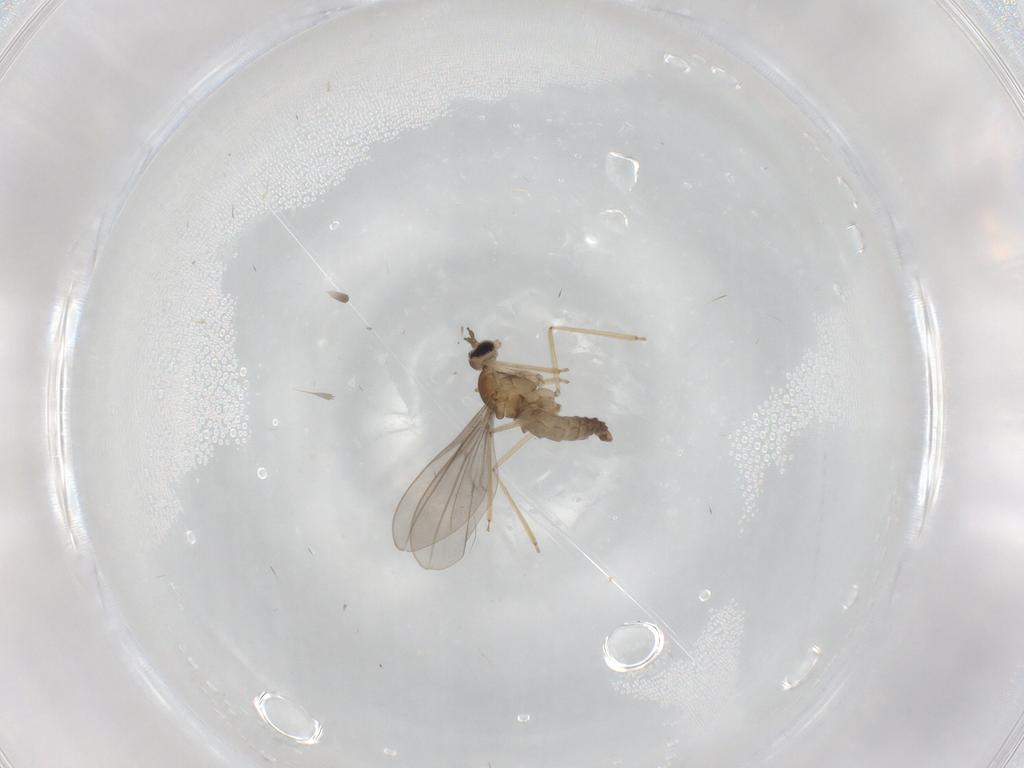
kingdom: Animalia
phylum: Arthropoda
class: Insecta
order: Diptera
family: Cecidomyiidae
